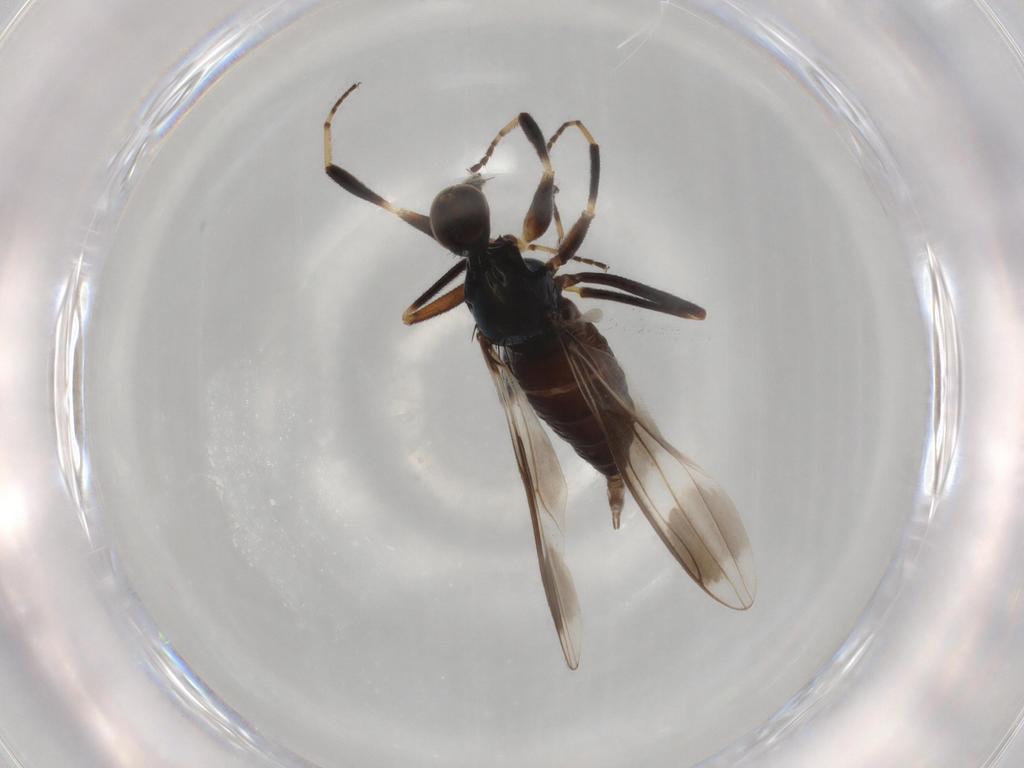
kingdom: Animalia
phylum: Arthropoda
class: Insecta
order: Diptera
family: Hybotidae
